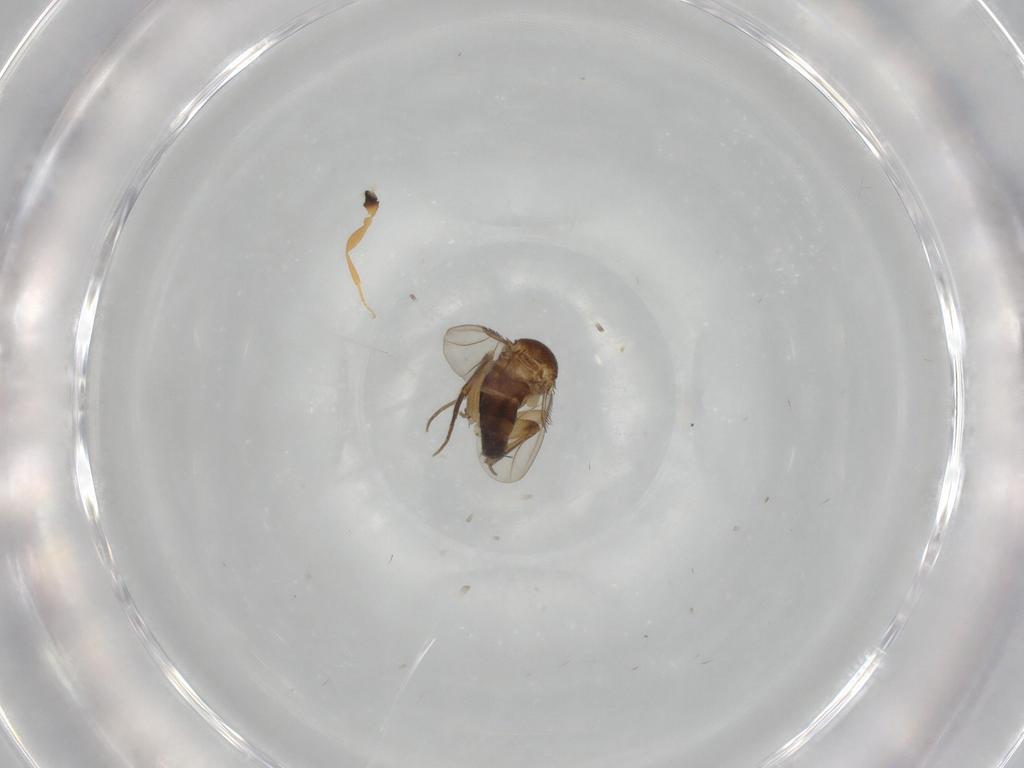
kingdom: Animalia
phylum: Arthropoda
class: Insecta
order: Diptera
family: Phoridae
